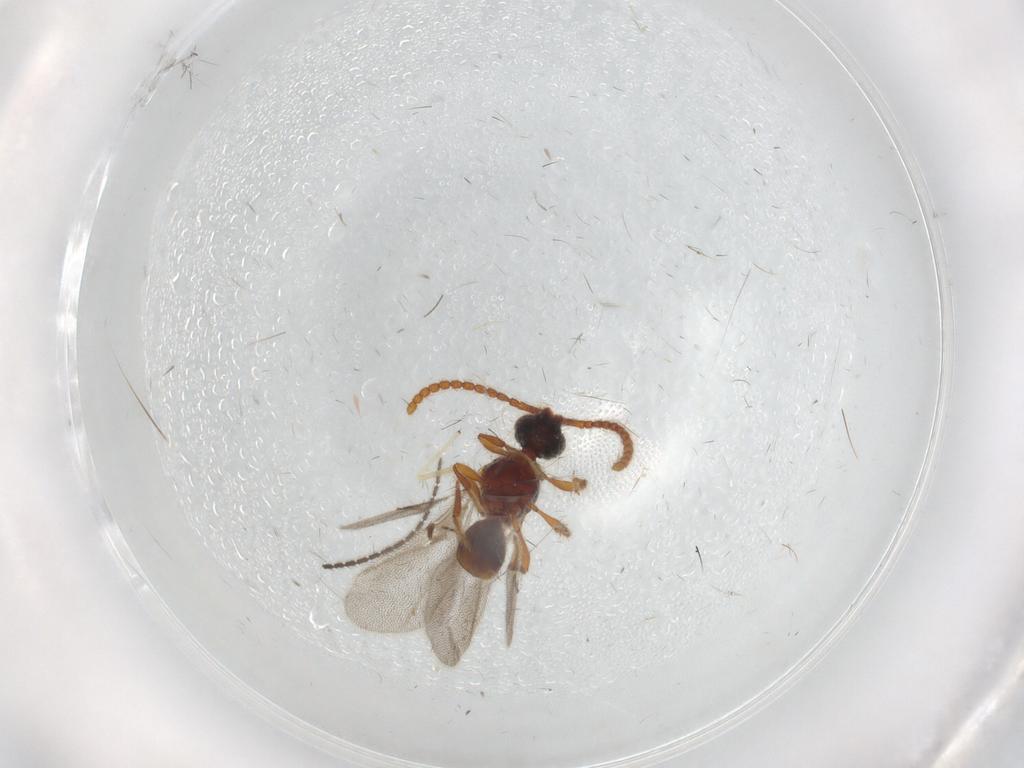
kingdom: Animalia
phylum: Arthropoda
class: Insecta
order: Hymenoptera
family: Diapriidae
